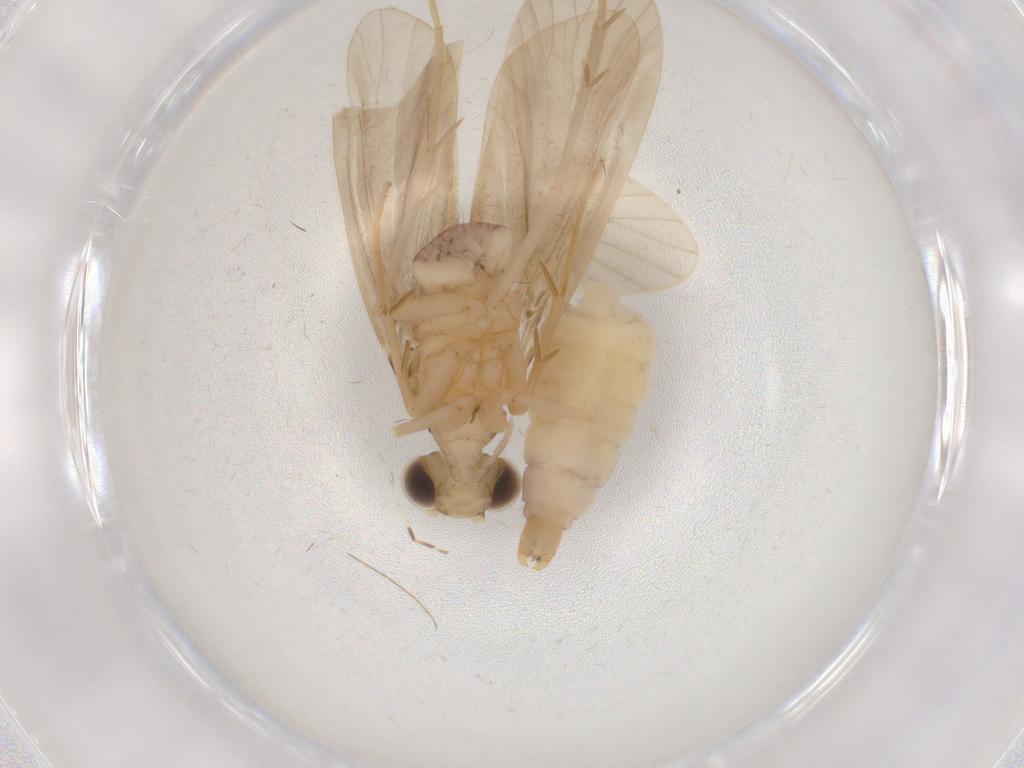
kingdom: Animalia
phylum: Arthropoda
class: Insecta
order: Trichoptera
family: Ecnomidae
